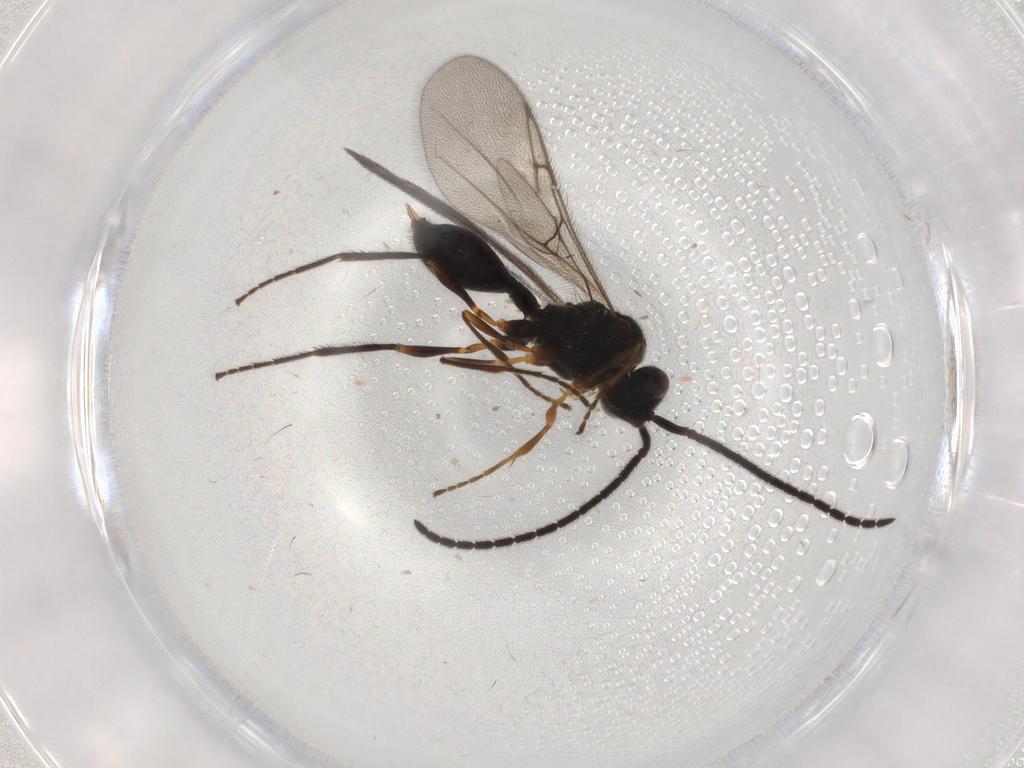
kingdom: Animalia
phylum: Arthropoda
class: Insecta
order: Hymenoptera
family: Diapriidae
